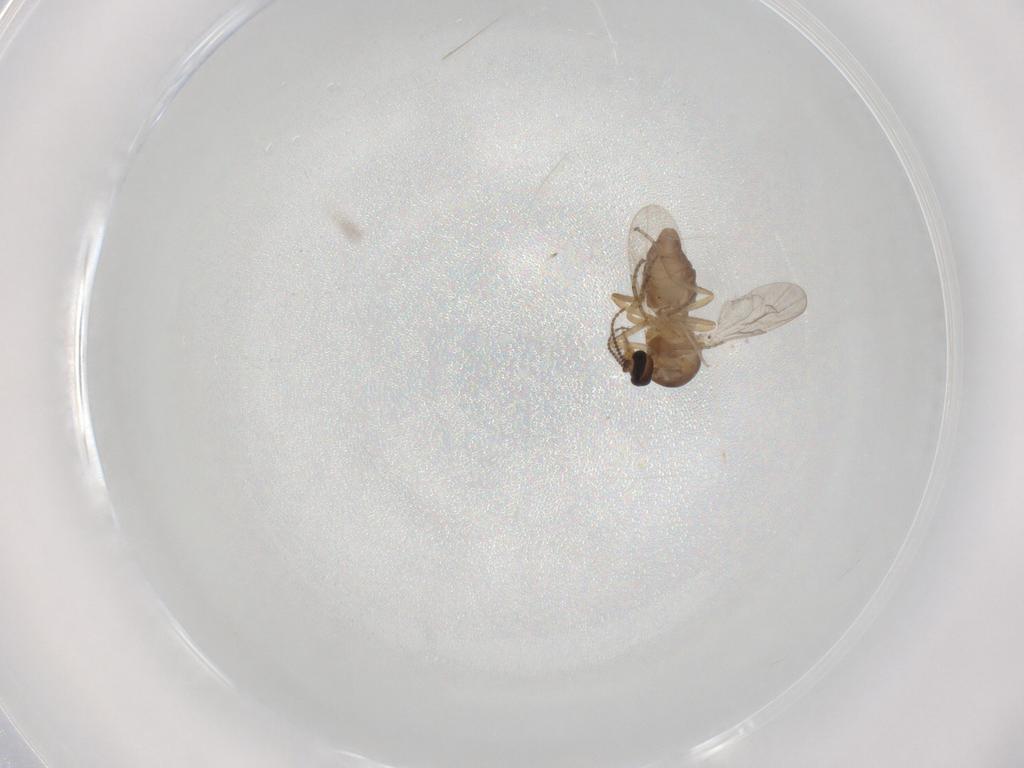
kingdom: Animalia
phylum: Arthropoda
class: Insecta
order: Diptera
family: Ceratopogonidae
